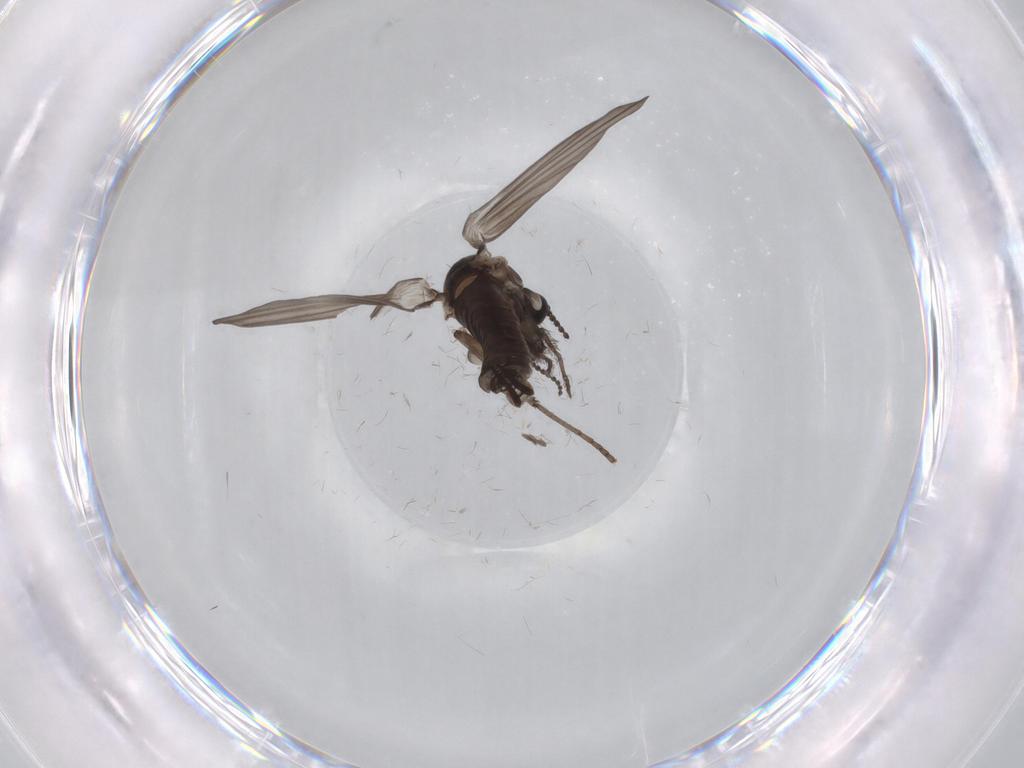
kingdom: Animalia
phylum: Arthropoda
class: Insecta
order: Diptera
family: Psychodidae
